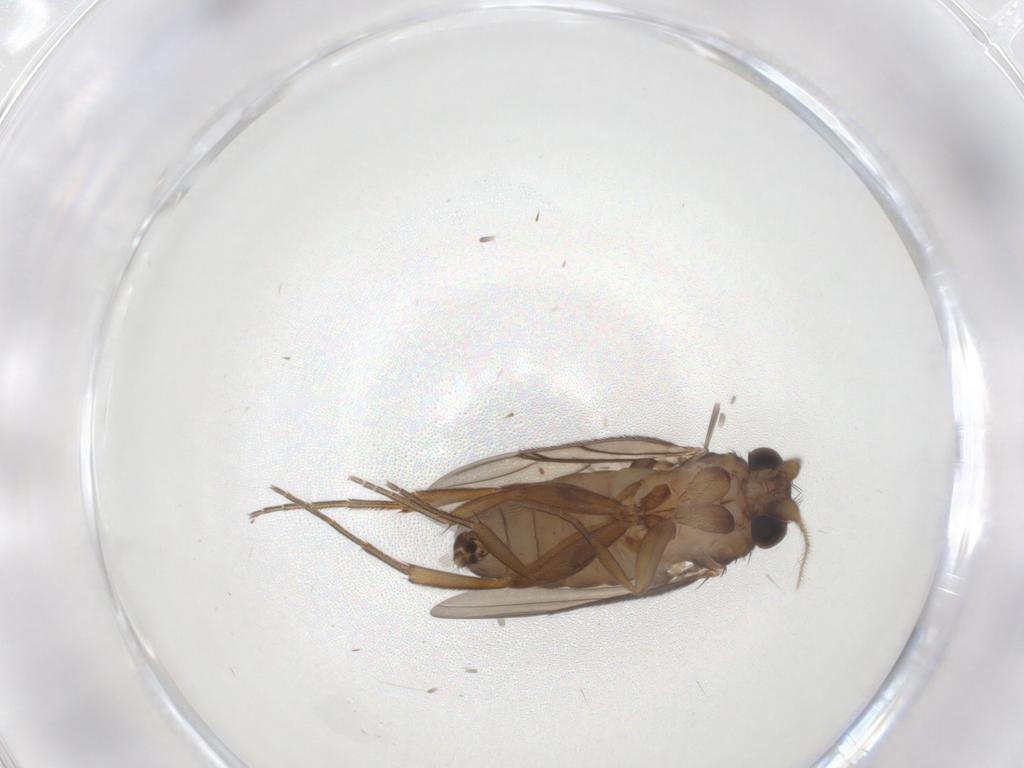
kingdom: Animalia
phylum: Arthropoda
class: Insecta
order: Diptera
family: Phoridae
